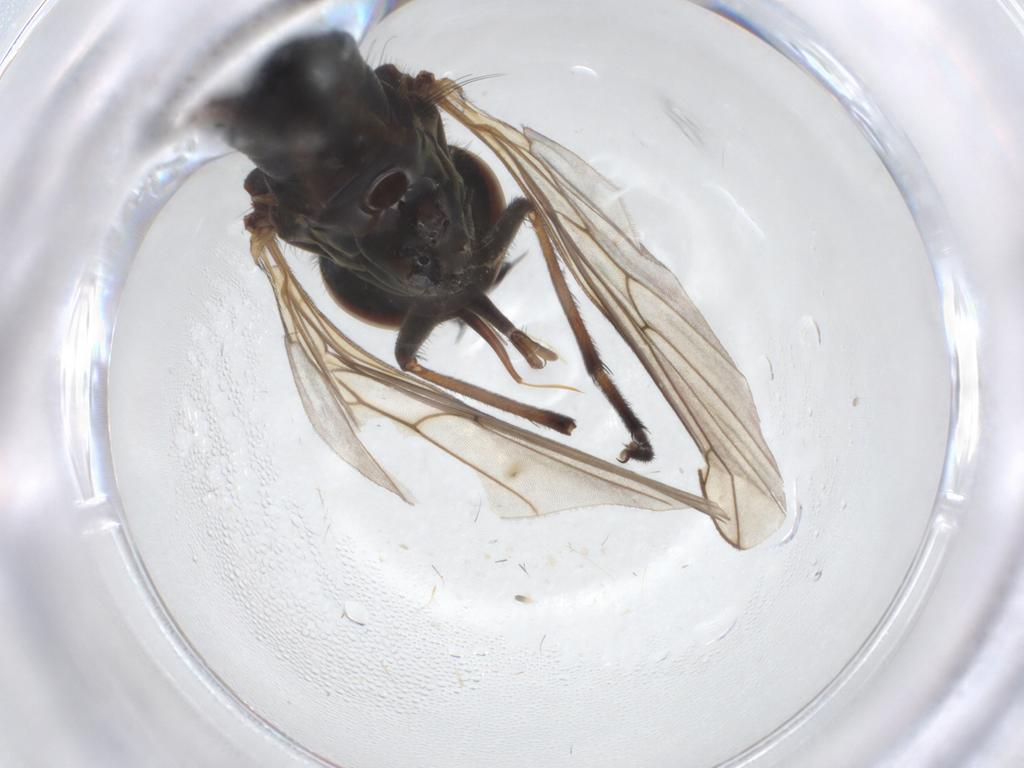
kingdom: Animalia
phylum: Arthropoda
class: Insecta
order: Diptera
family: Empididae
